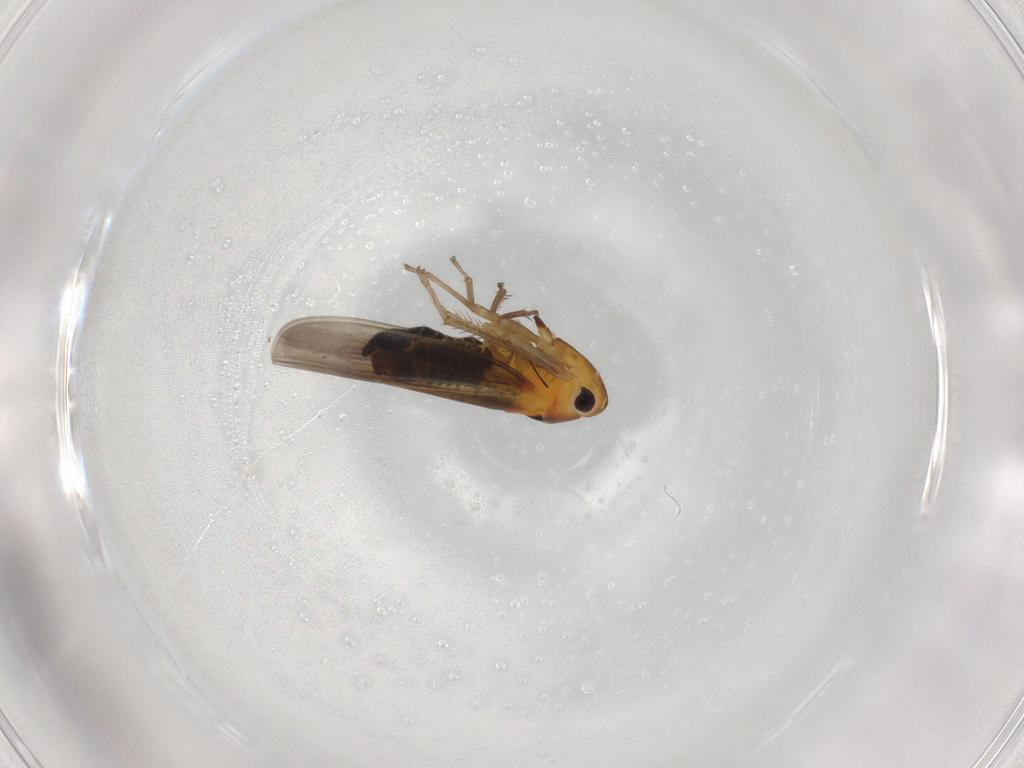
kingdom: Animalia
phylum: Arthropoda
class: Insecta
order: Hemiptera
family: Cicadellidae
